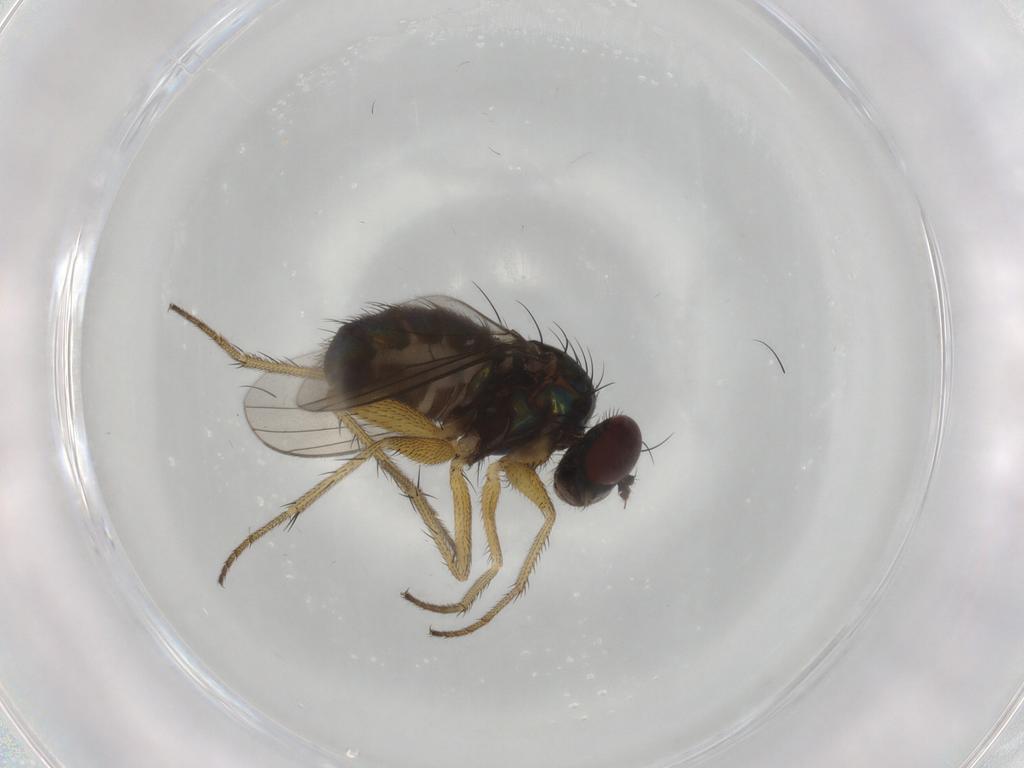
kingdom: Animalia
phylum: Arthropoda
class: Insecta
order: Diptera
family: Dolichopodidae
